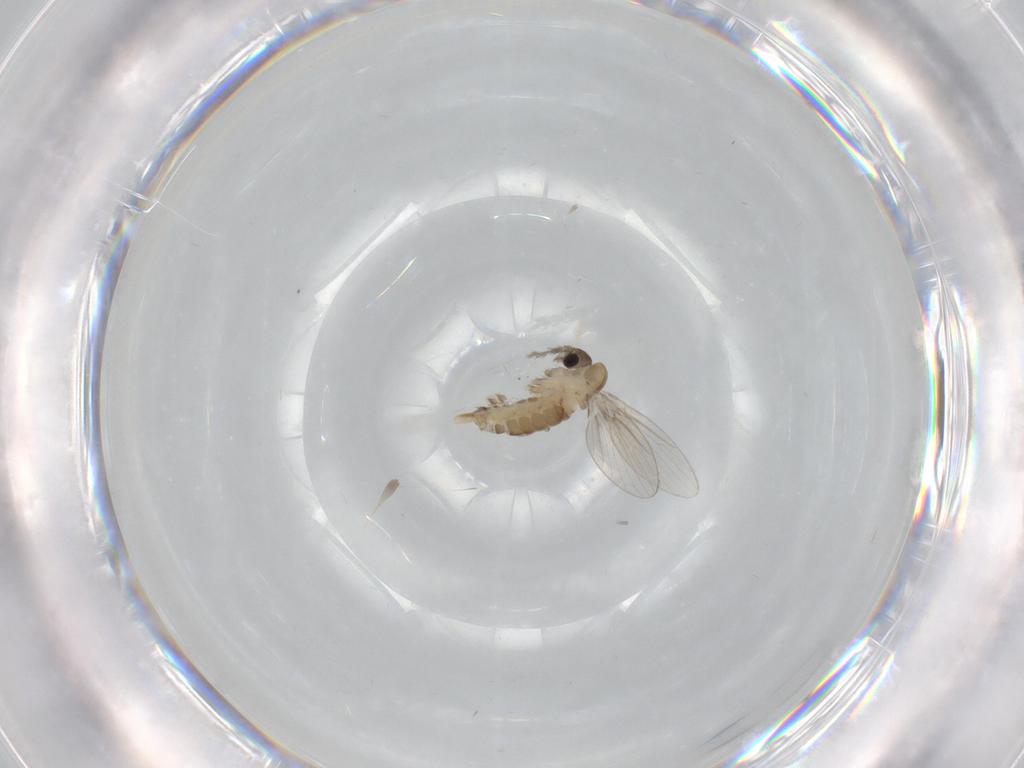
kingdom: Animalia
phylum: Arthropoda
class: Insecta
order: Diptera
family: Psychodidae
